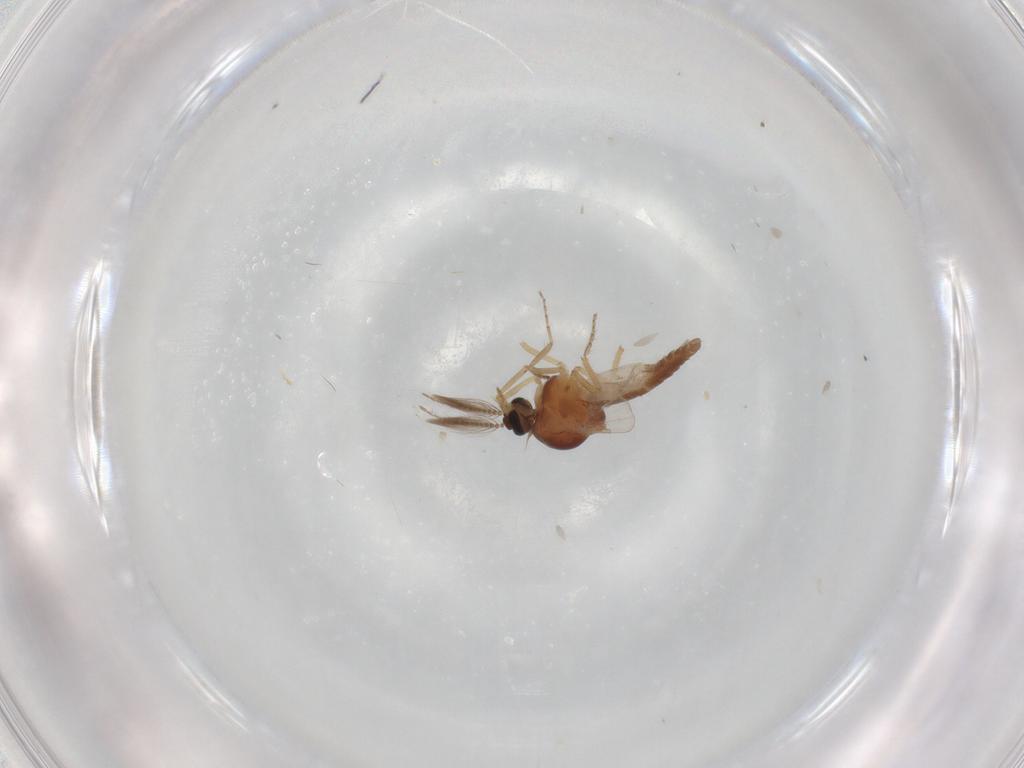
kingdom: Animalia
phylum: Arthropoda
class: Insecta
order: Diptera
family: Ceratopogonidae
